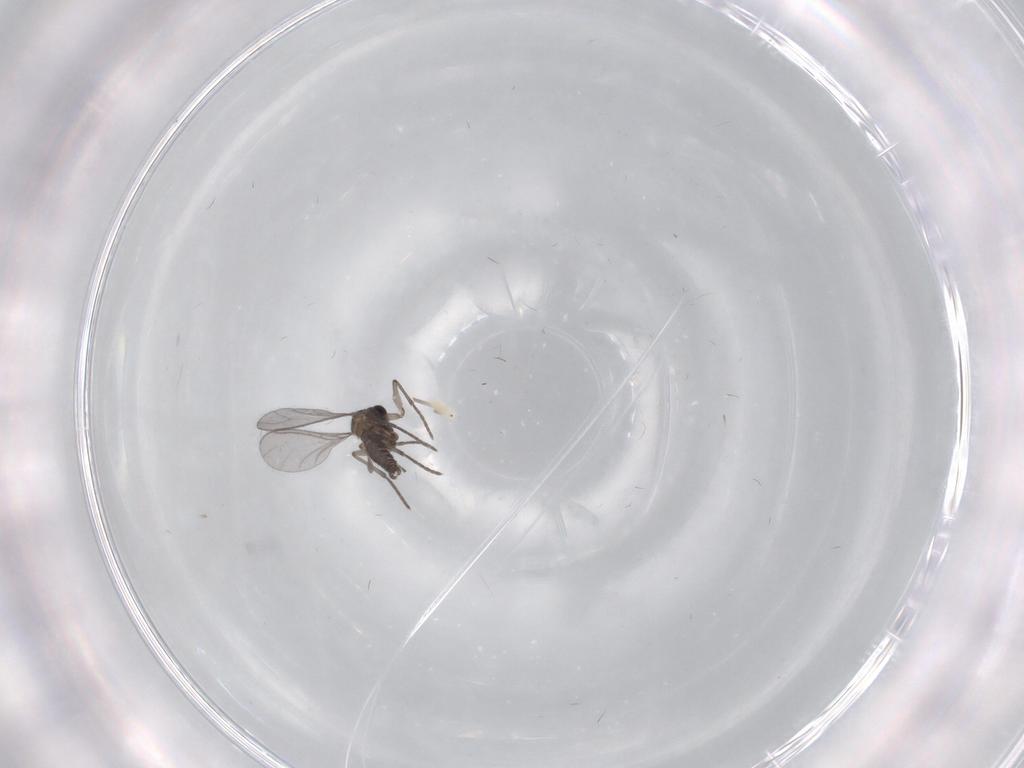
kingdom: Animalia
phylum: Arthropoda
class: Insecta
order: Diptera
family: Sciaridae
